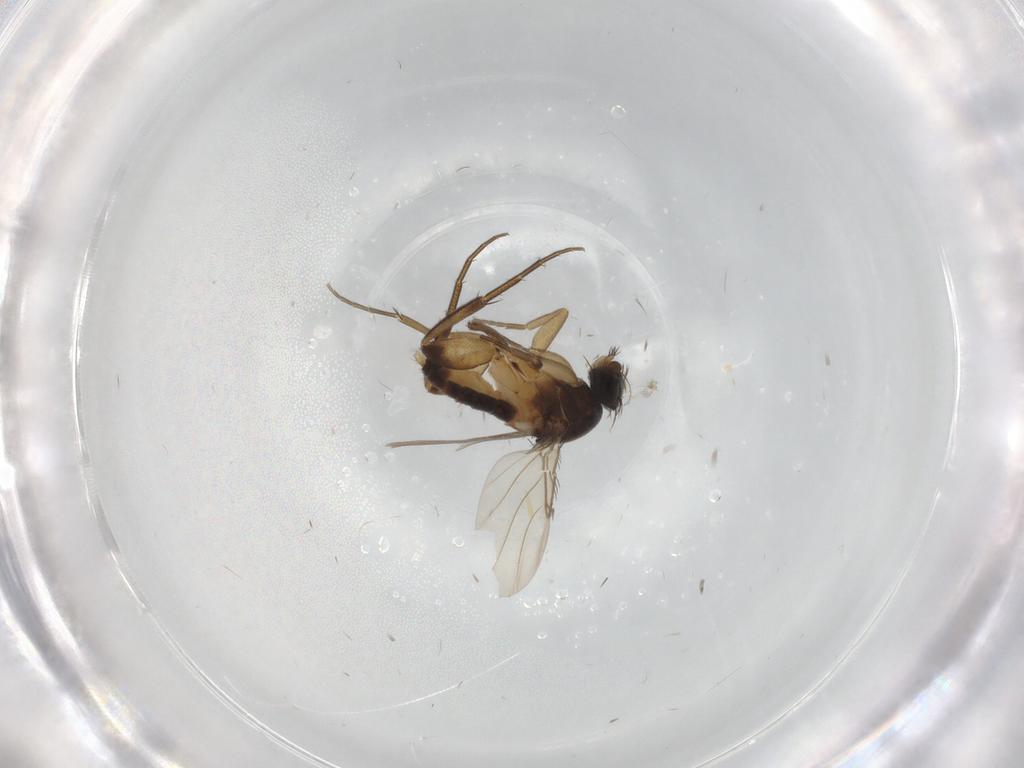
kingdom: Animalia
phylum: Arthropoda
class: Insecta
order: Diptera
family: Phoridae
